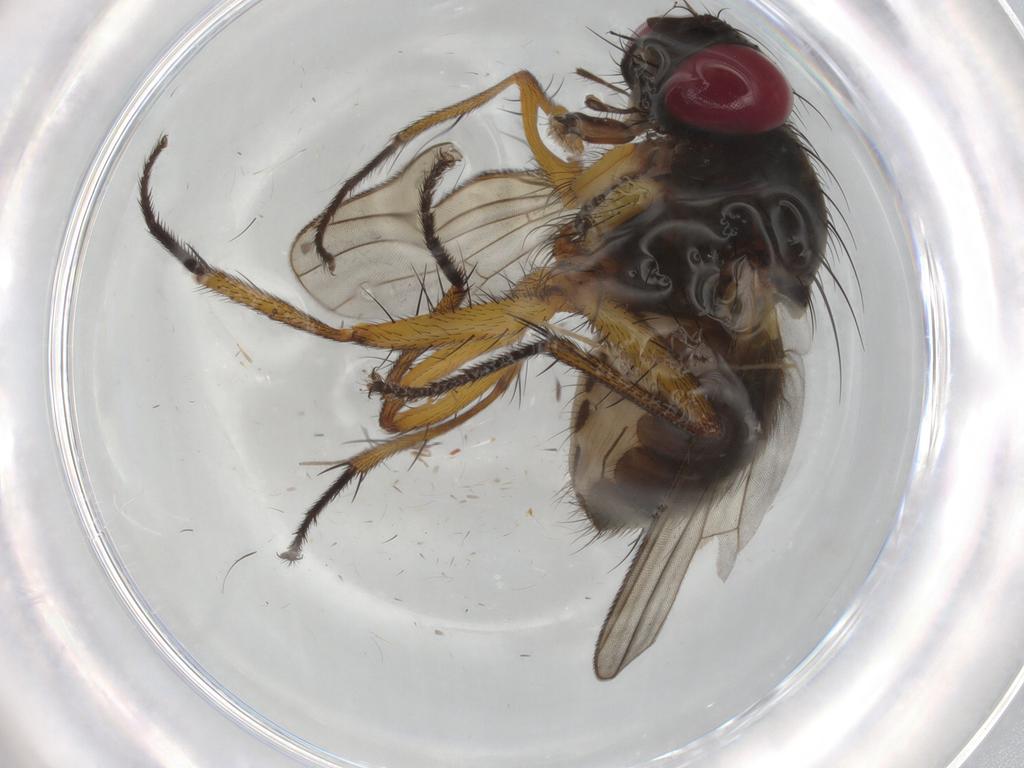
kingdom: Animalia
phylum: Arthropoda
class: Insecta
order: Diptera
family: Muscidae
